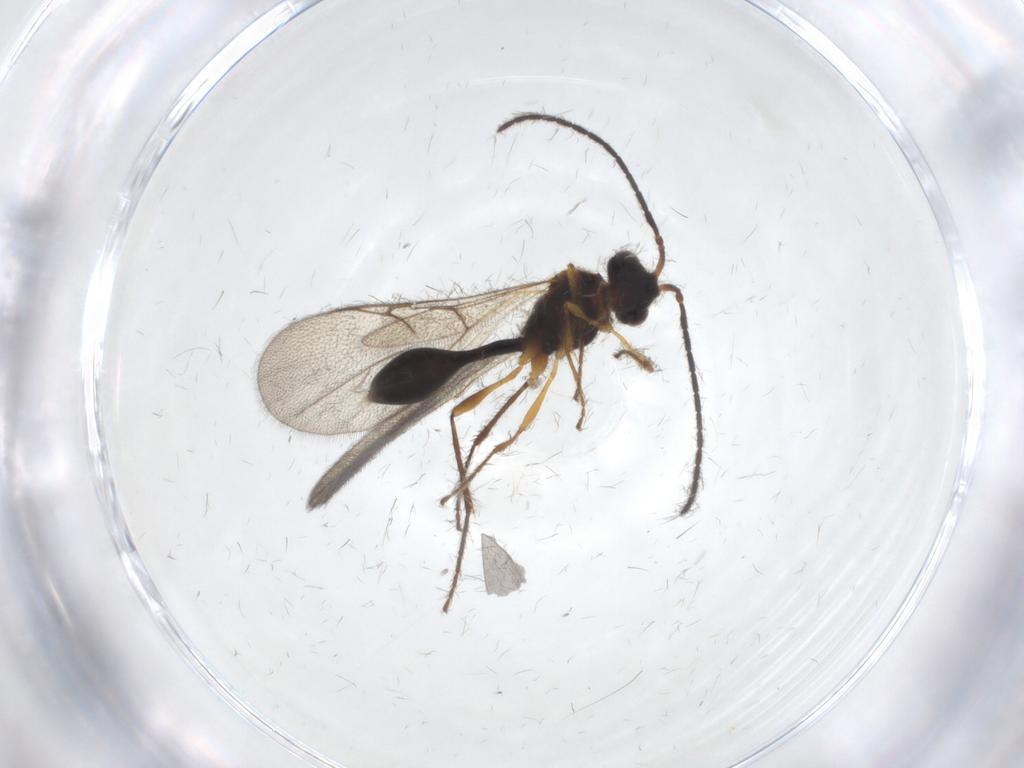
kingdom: Animalia
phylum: Arthropoda
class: Insecta
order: Hymenoptera
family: Diapriidae
